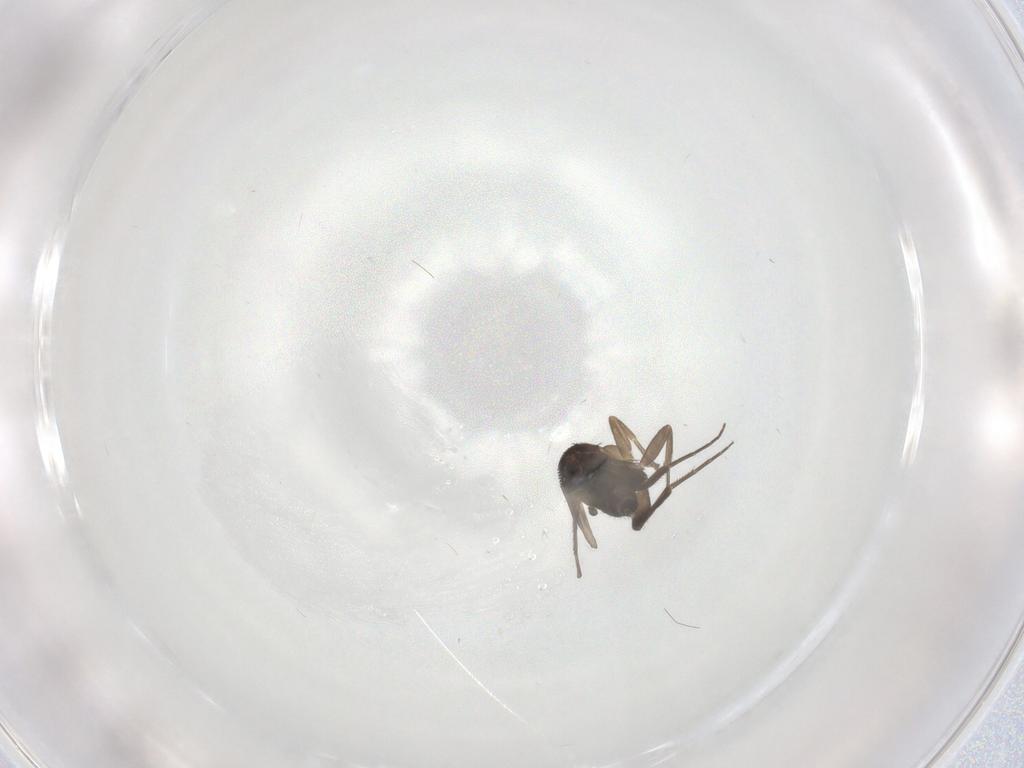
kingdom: Animalia
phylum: Arthropoda
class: Insecta
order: Diptera
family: Phoridae
